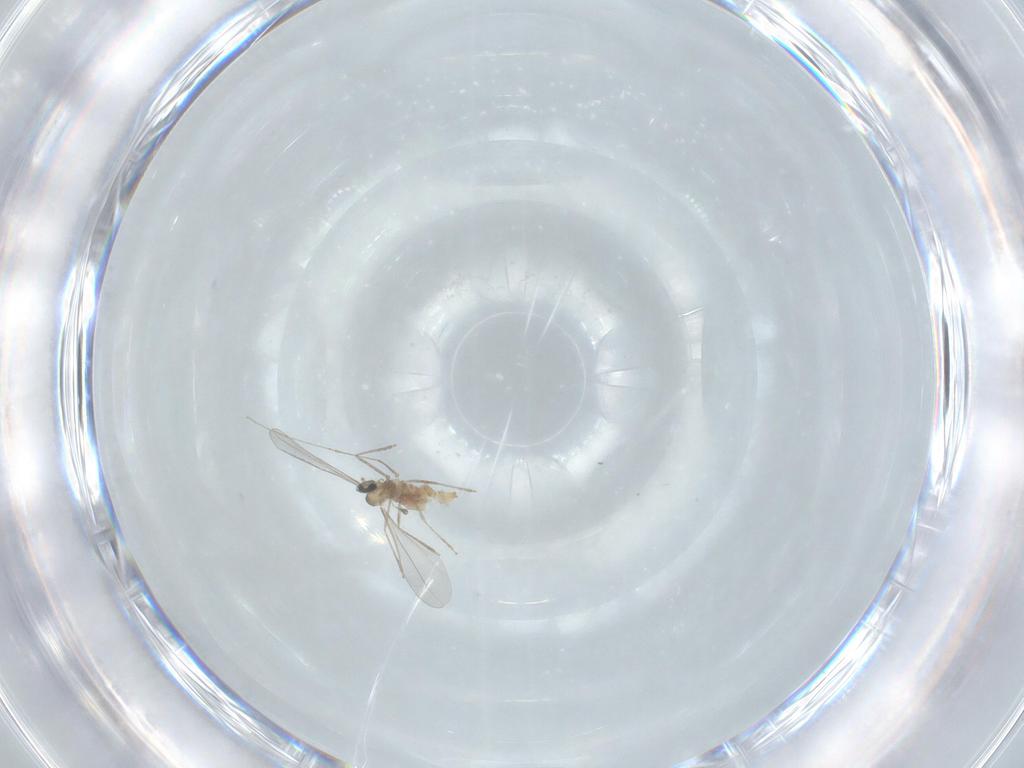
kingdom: Animalia
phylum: Arthropoda
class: Insecta
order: Diptera
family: Cecidomyiidae
